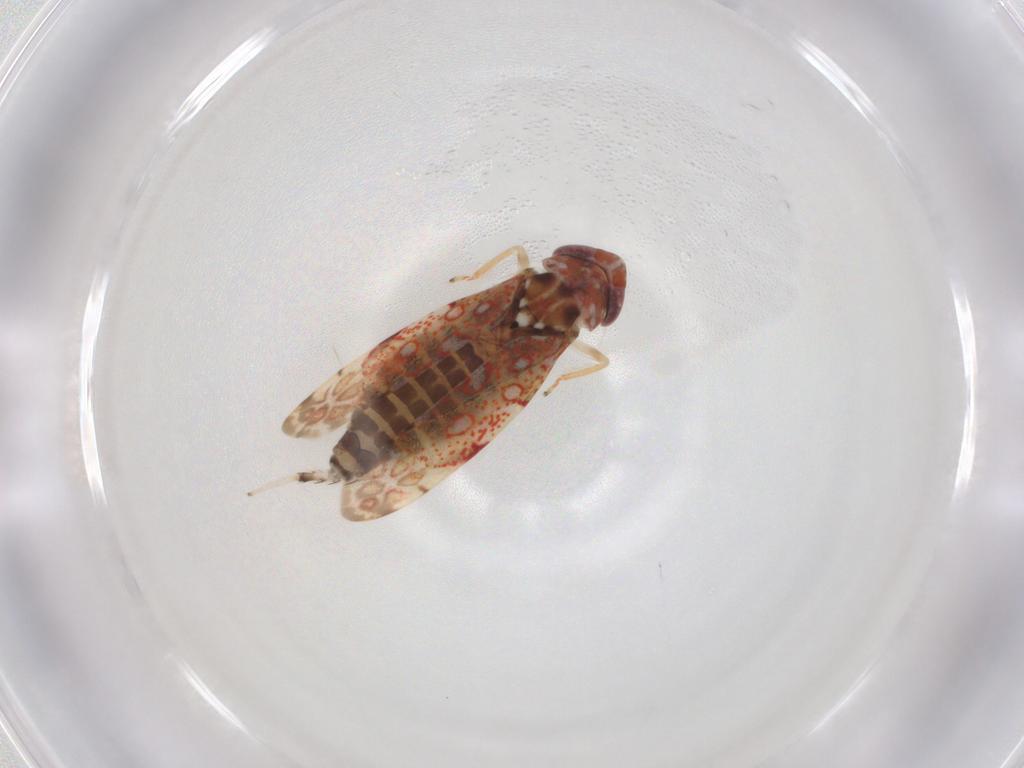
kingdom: Animalia
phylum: Arthropoda
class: Insecta
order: Hemiptera
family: Cicadellidae
